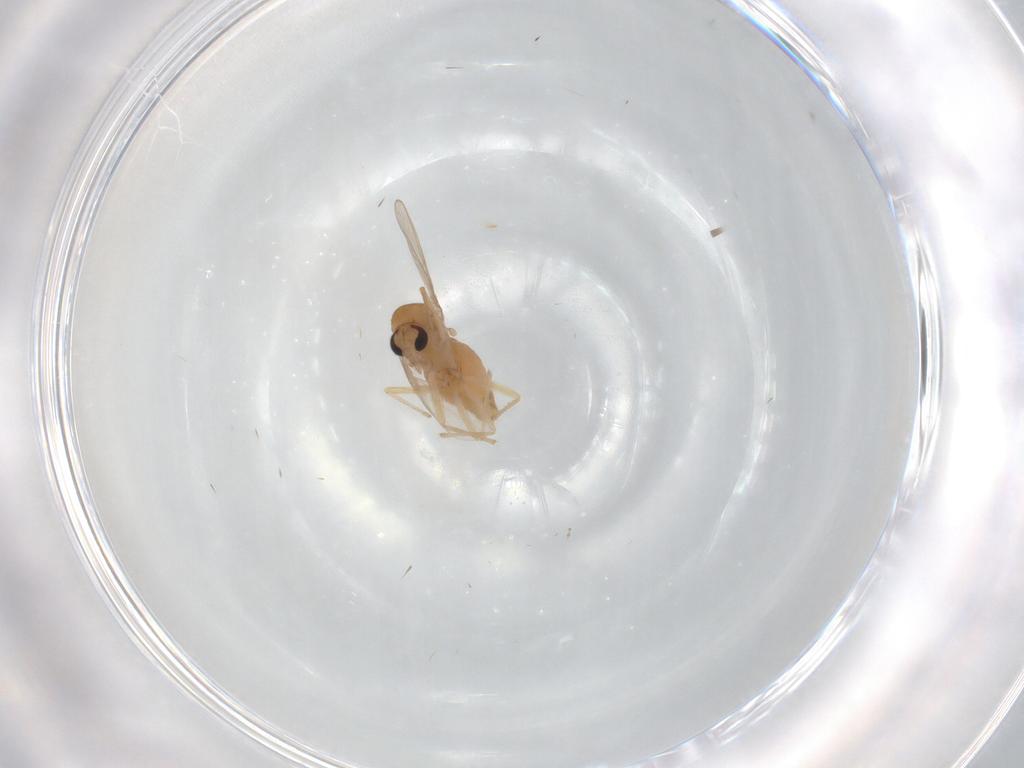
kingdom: Animalia
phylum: Arthropoda
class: Insecta
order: Diptera
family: Chironomidae
